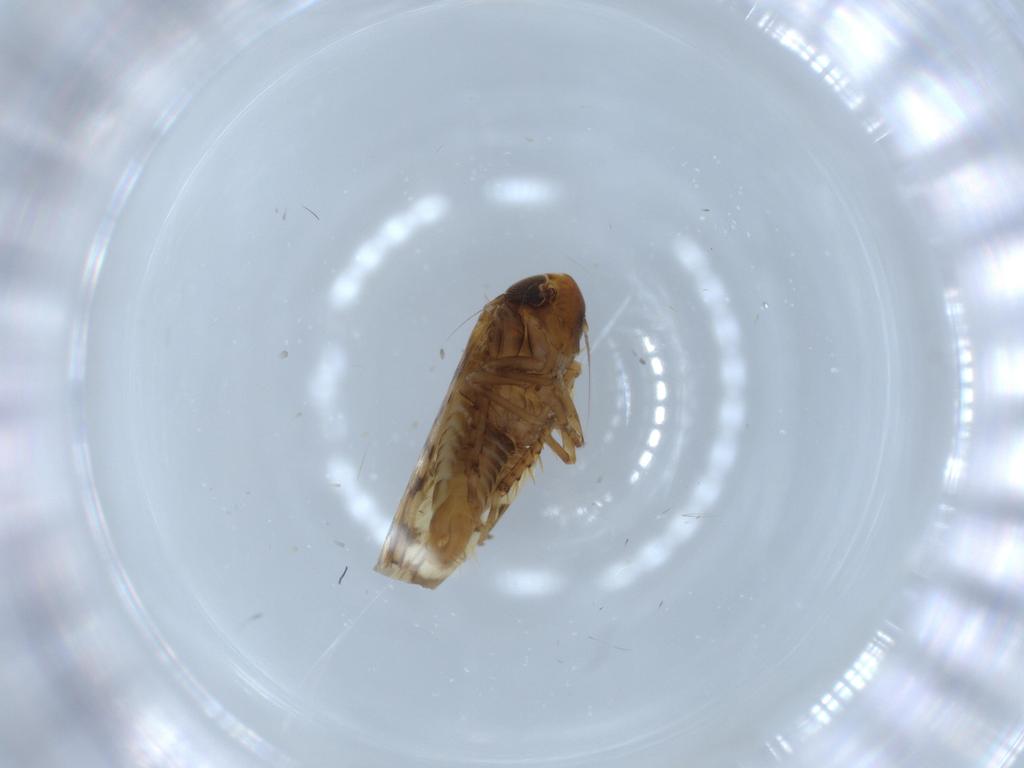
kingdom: Animalia
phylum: Arthropoda
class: Insecta
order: Hemiptera
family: Cicadellidae
